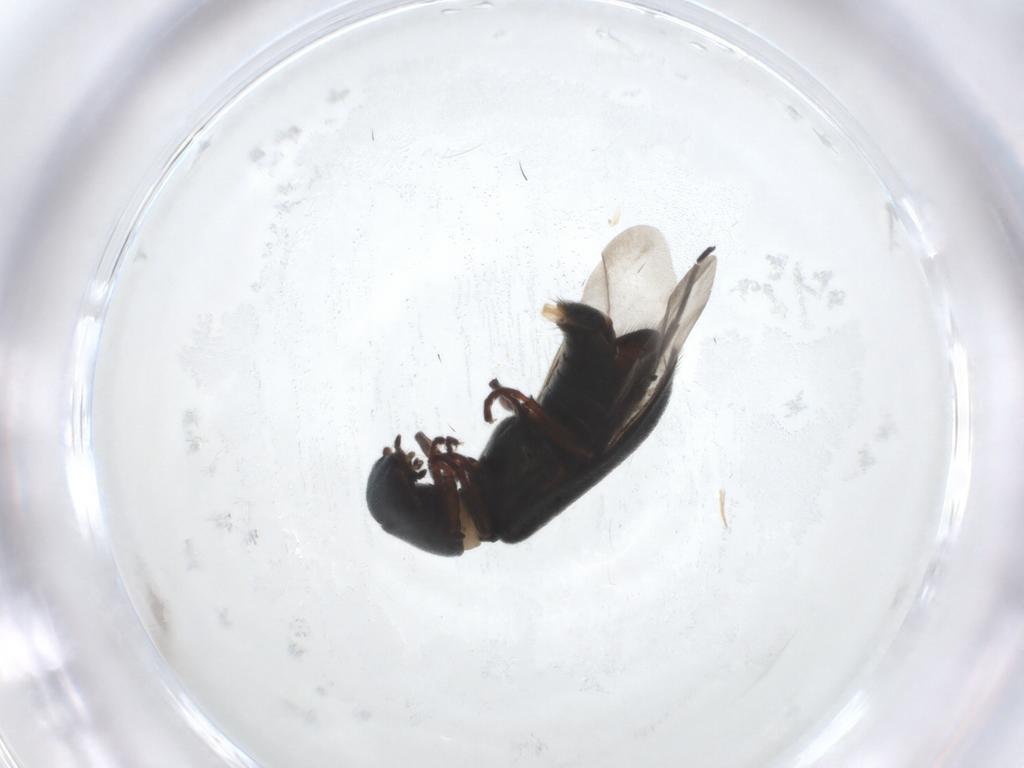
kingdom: Animalia
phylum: Arthropoda
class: Insecta
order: Coleoptera
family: Melyridae
